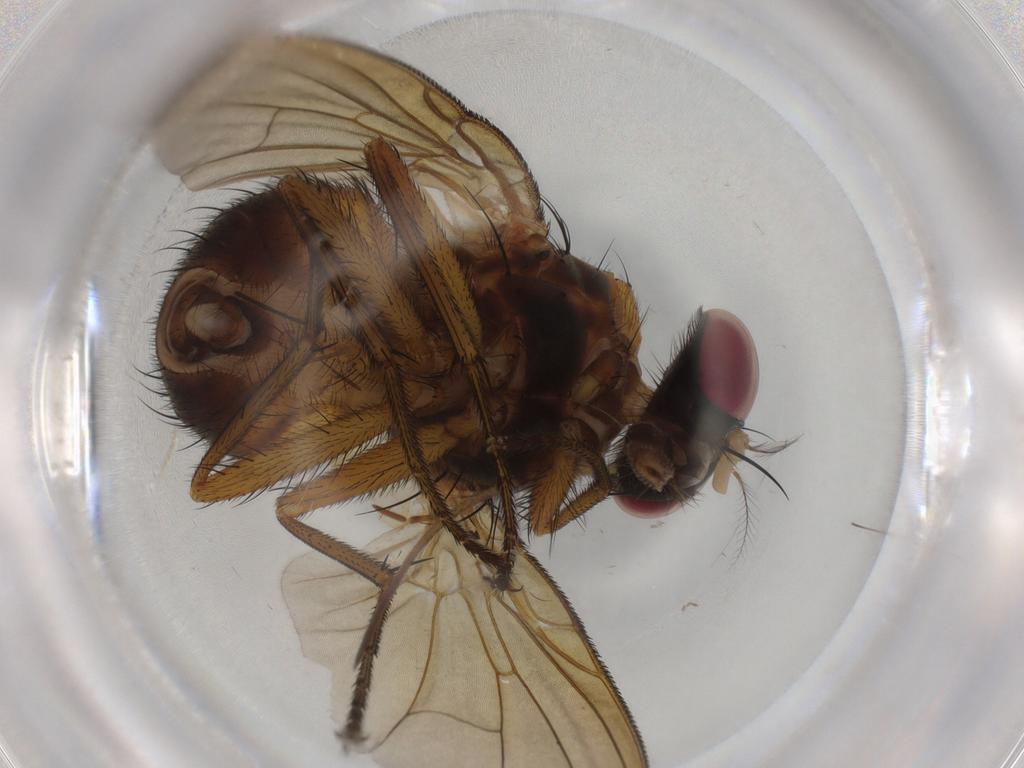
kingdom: Animalia
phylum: Arthropoda
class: Insecta
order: Diptera
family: Muscidae
